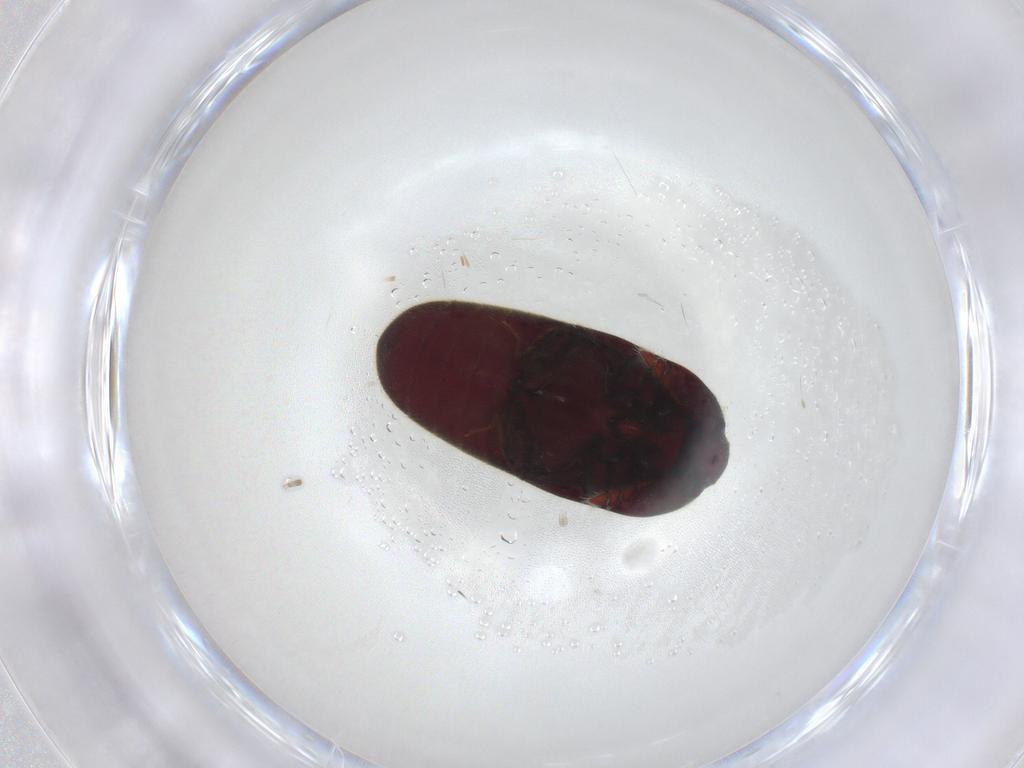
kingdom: Animalia
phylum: Arthropoda
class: Insecta
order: Coleoptera
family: Throscidae
